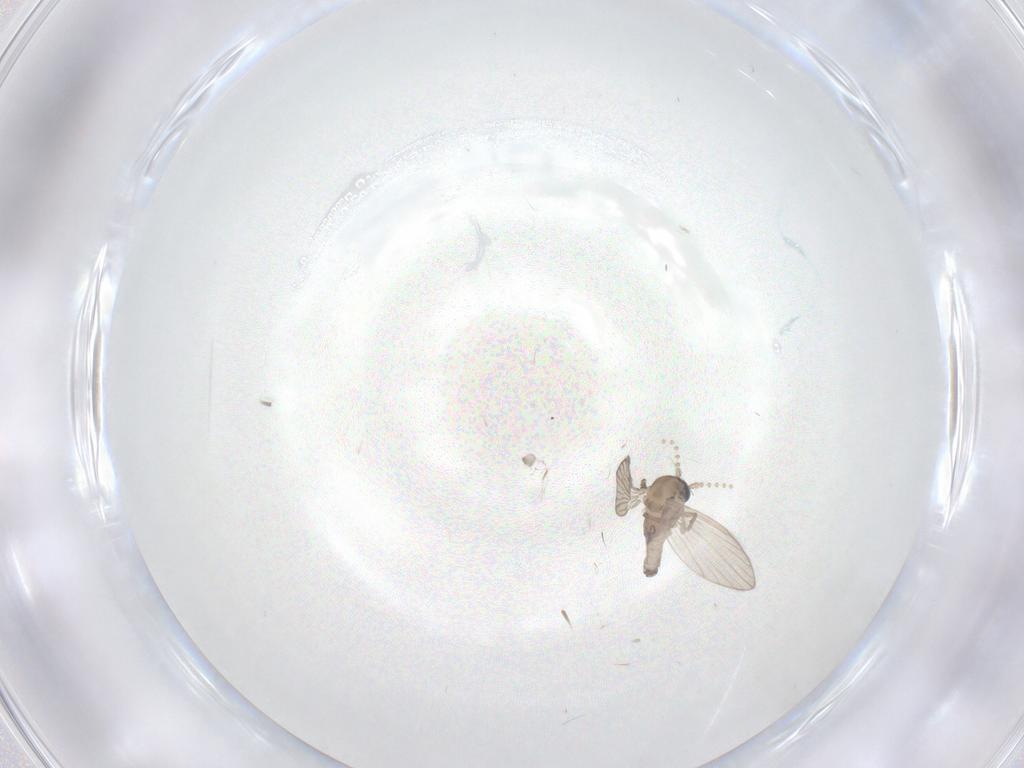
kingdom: Animalia
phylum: Arthropoda
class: Insecta
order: Diptera
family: Psychodidae
